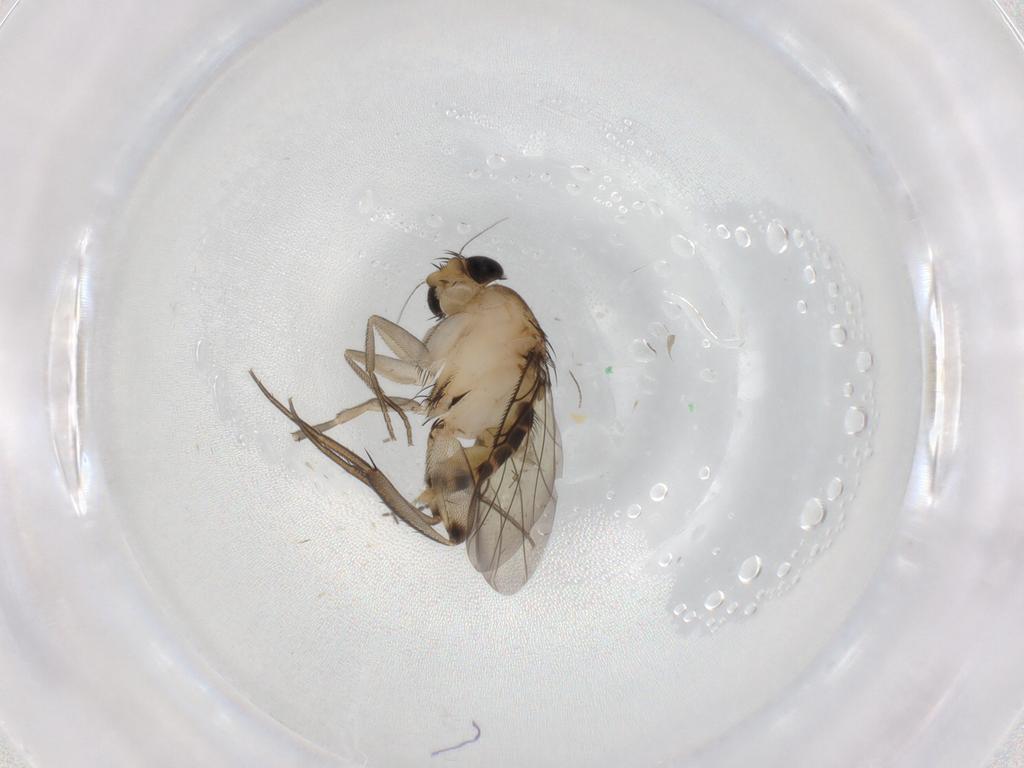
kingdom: Animalia
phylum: Arthropoda
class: Insecta
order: Diptera
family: Phoridae
